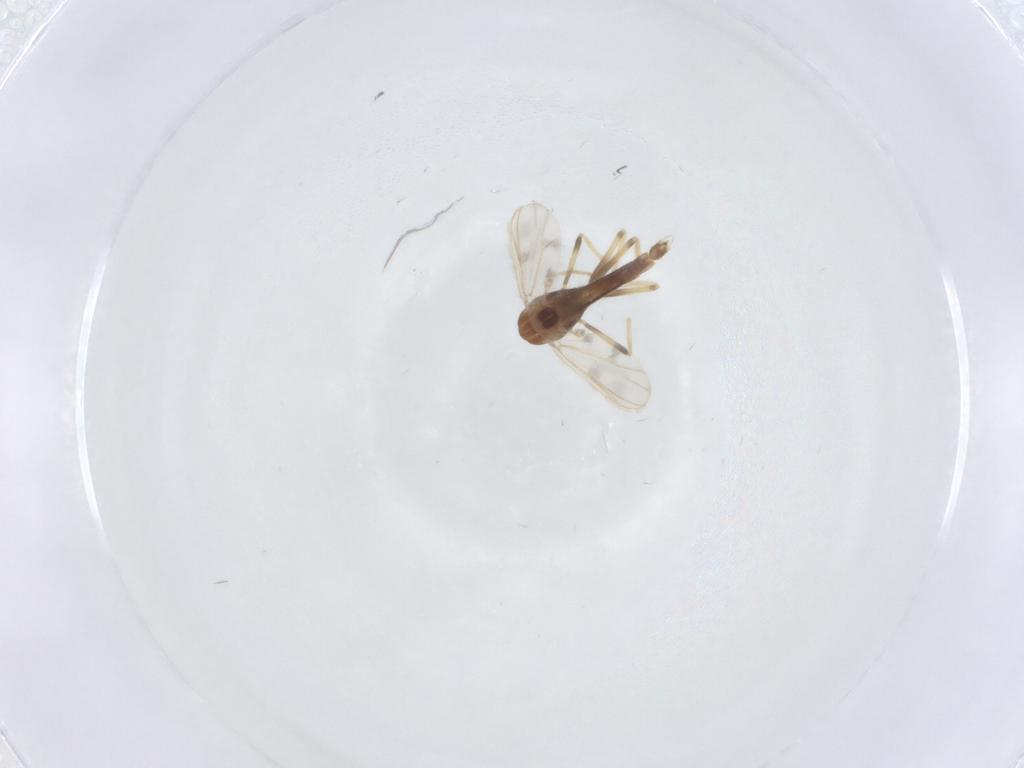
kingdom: Animalia
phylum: Arthropoda
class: Insecta
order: Diptera
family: Chironomidae
